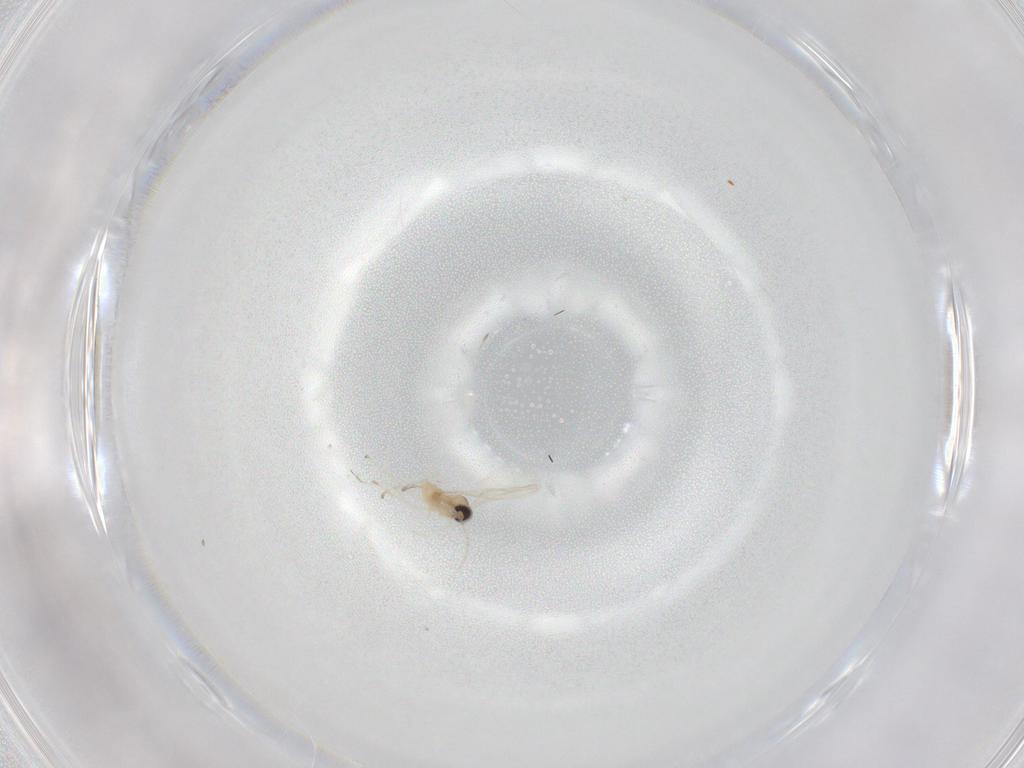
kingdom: Animalia
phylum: Arthropoda
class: Insecta
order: Diptera
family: Ceratopogonidae
